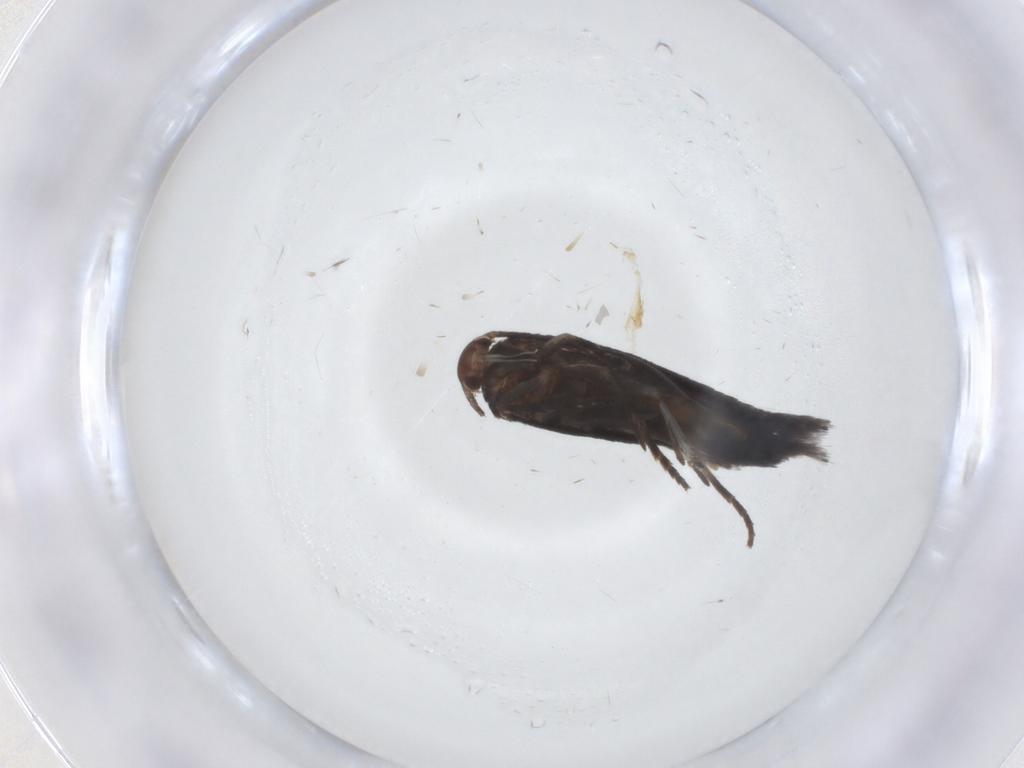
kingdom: Animalia
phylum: Arthropoda
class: Insecta
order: Lepidoptera
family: Elachistidae
